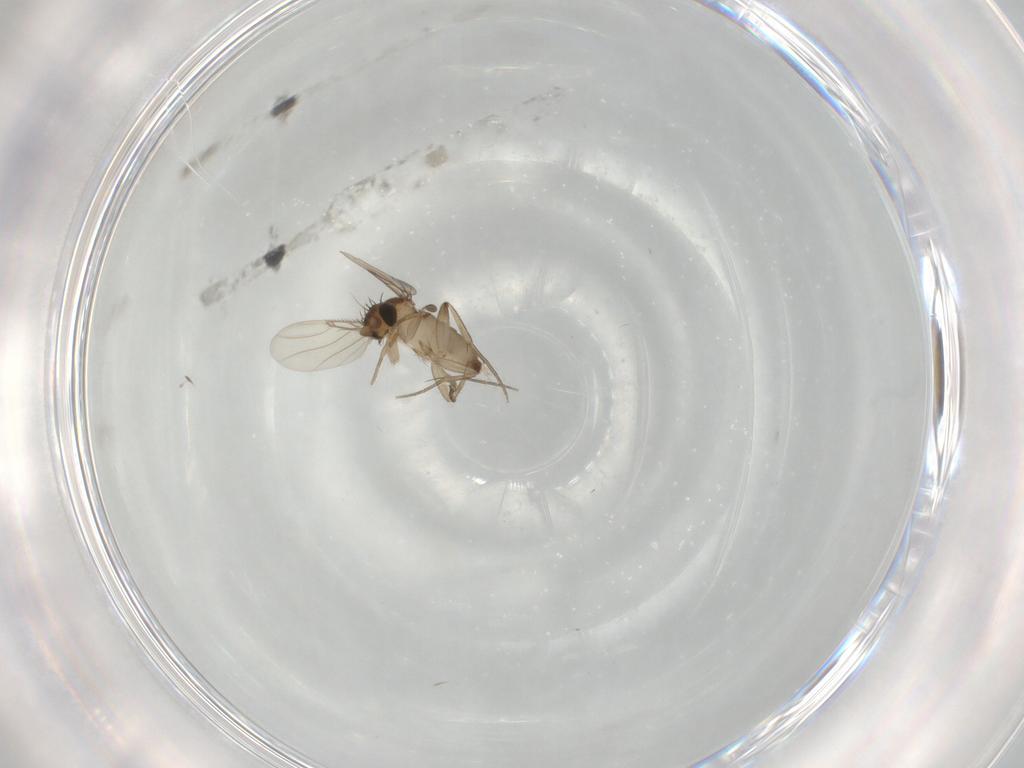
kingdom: Animalia
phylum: Arthropoda
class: Insecta
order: Diptera
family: Phoridae
